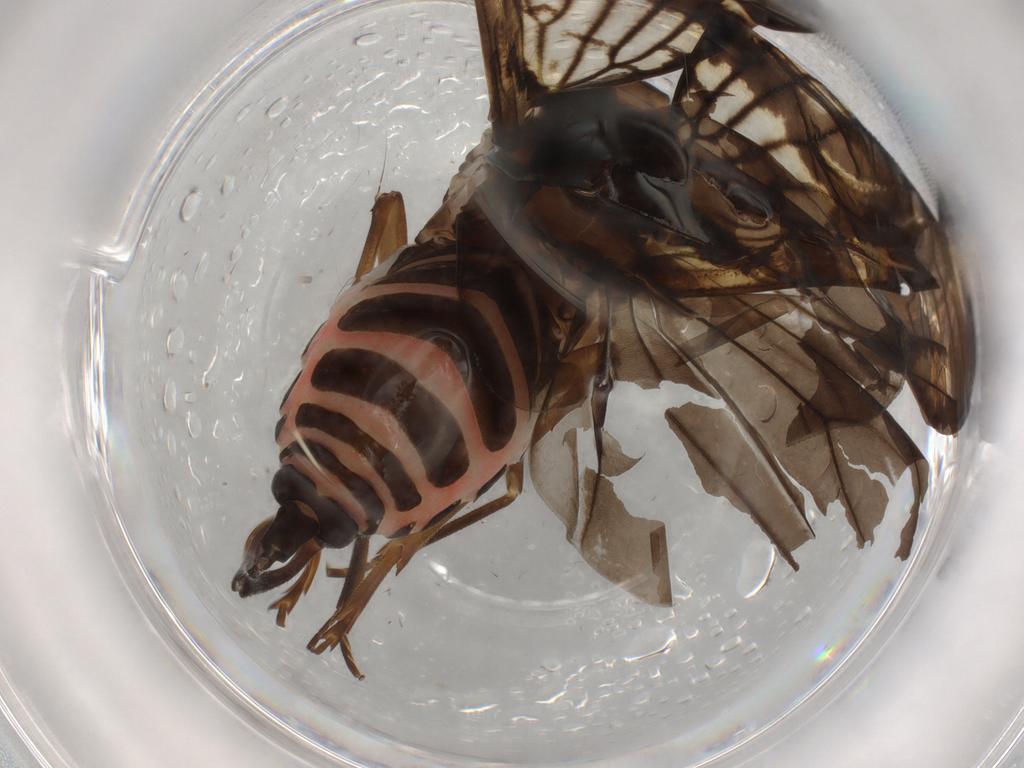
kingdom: Animalia
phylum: Arthropoda
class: Insecta
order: Hemiptera
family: Cixiidae
